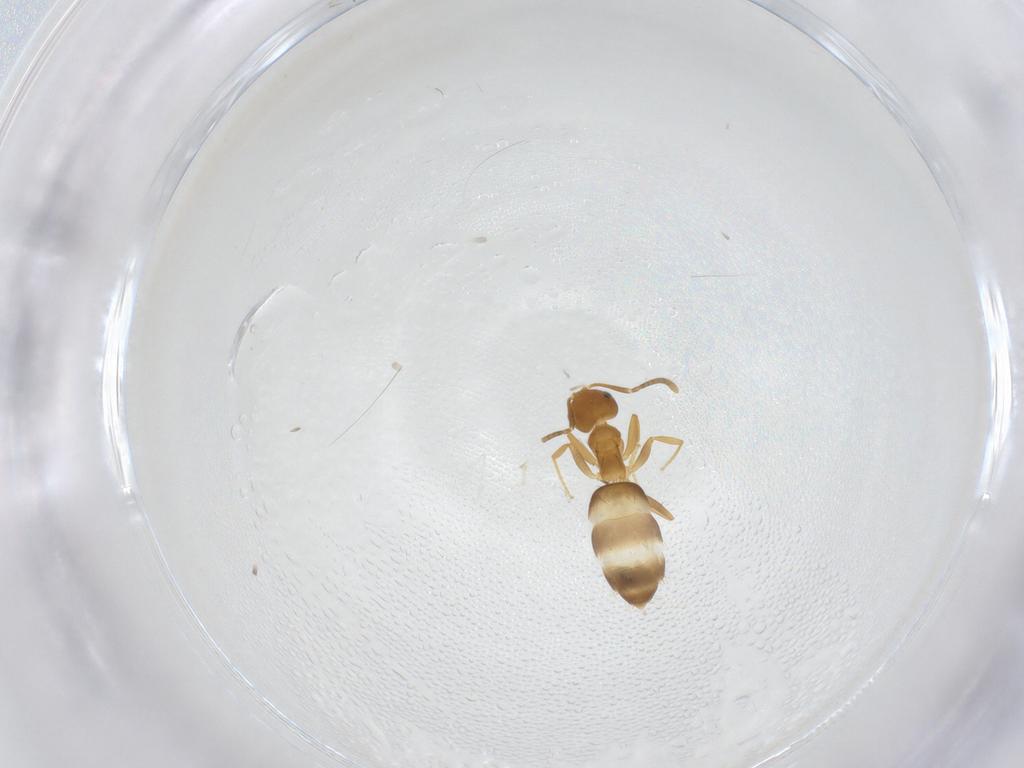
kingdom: Animalia
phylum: Arthropoda
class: Insecta
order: Hymenoptera
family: Formicidae
